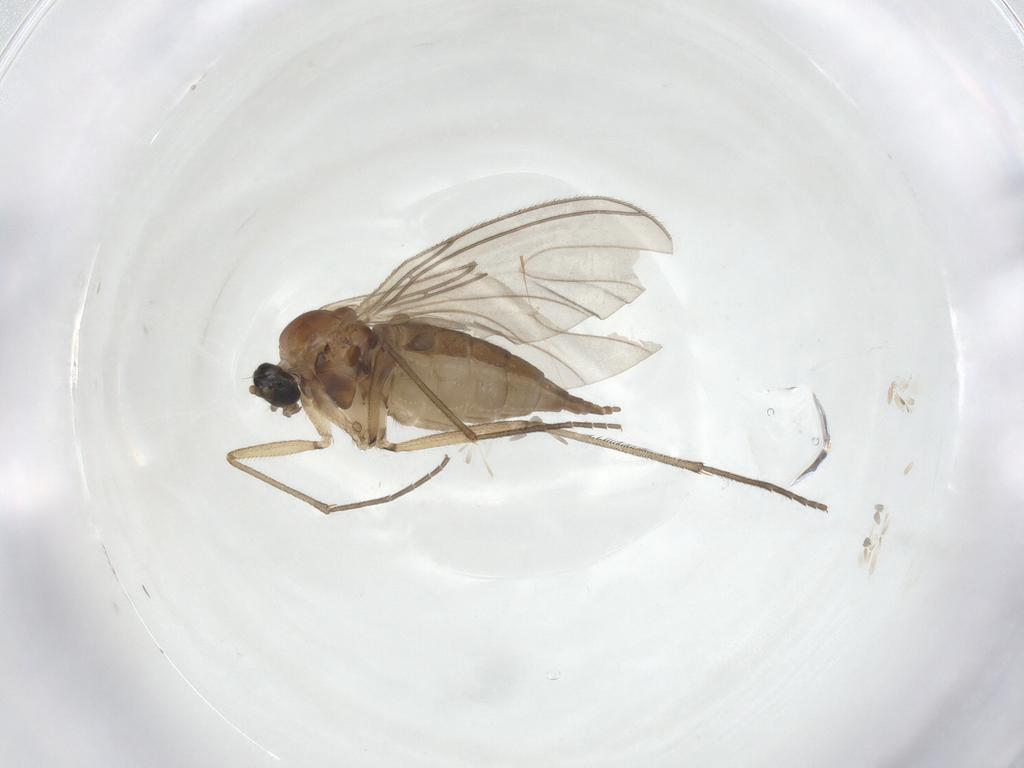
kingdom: Animalia
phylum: Arthropoda
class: Insecta
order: Diptera
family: Sciaridae
